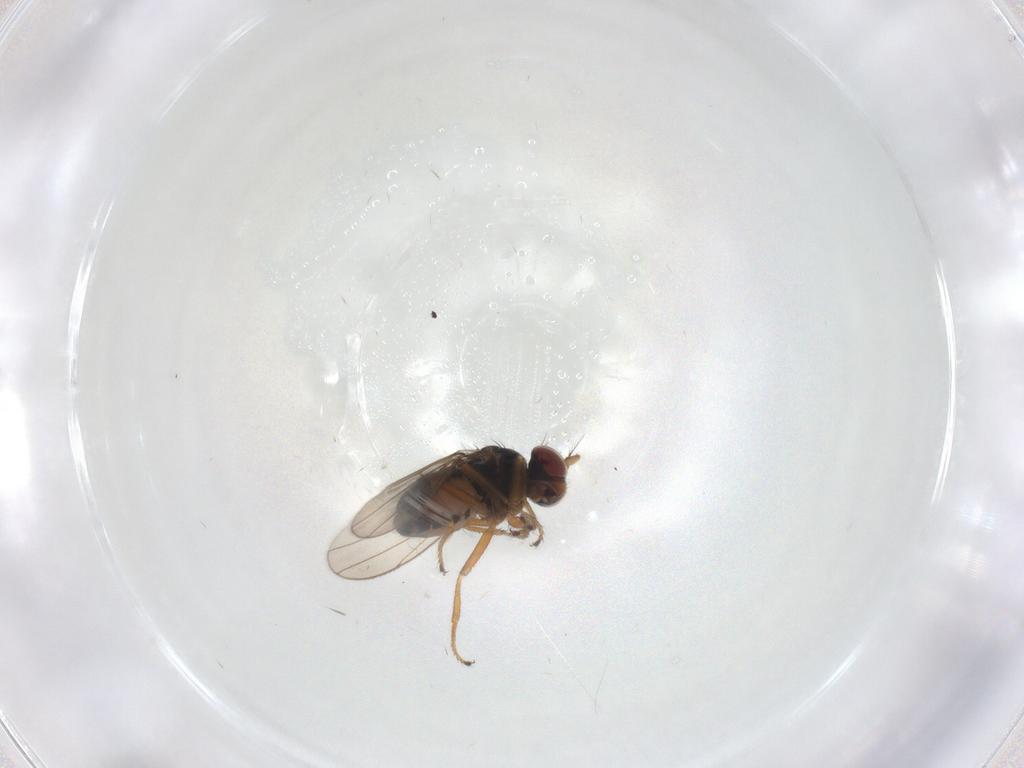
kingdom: Animalia
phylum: Arthropoda
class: Insecta
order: Diptera
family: Ephydridae
